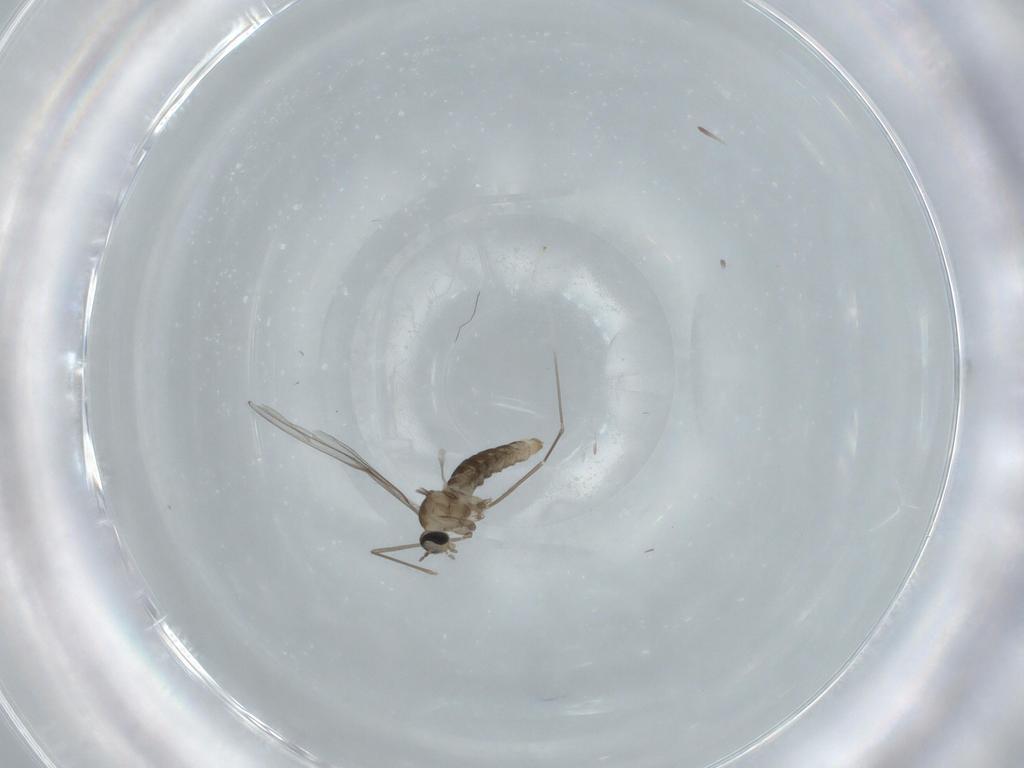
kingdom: Animalia
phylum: Arthropoda
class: Insecta
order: Diptera
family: Cecidomyiidae
